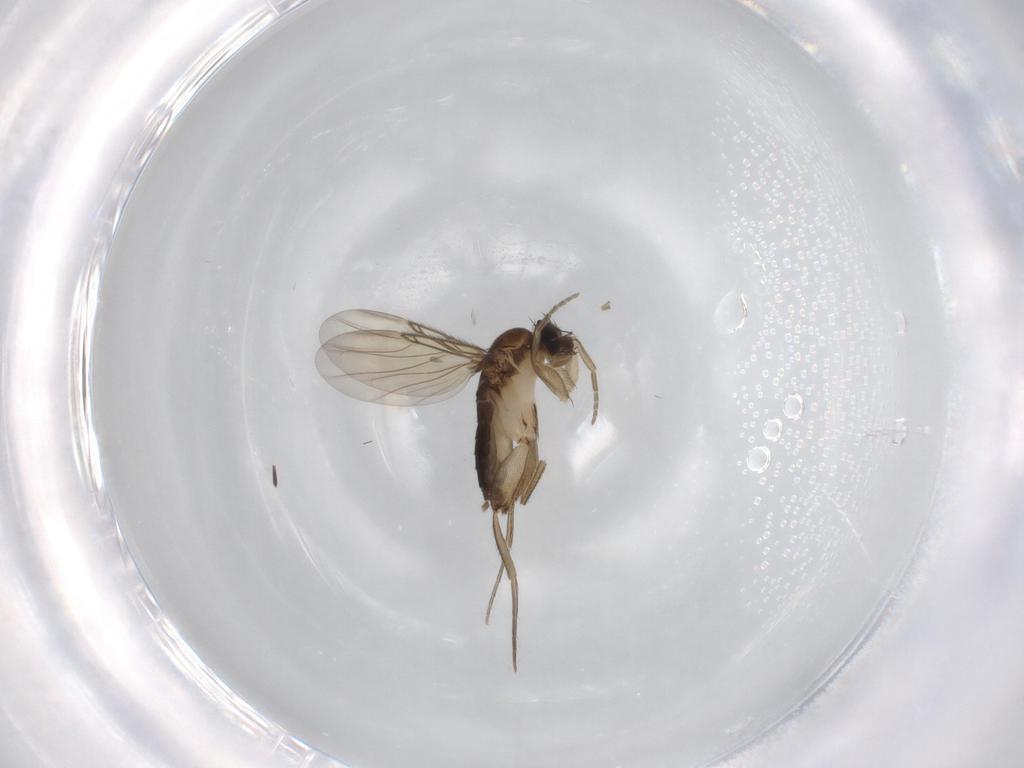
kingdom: Animalia
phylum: Arthropoda
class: Insecta
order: Diptera
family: Phoridae
